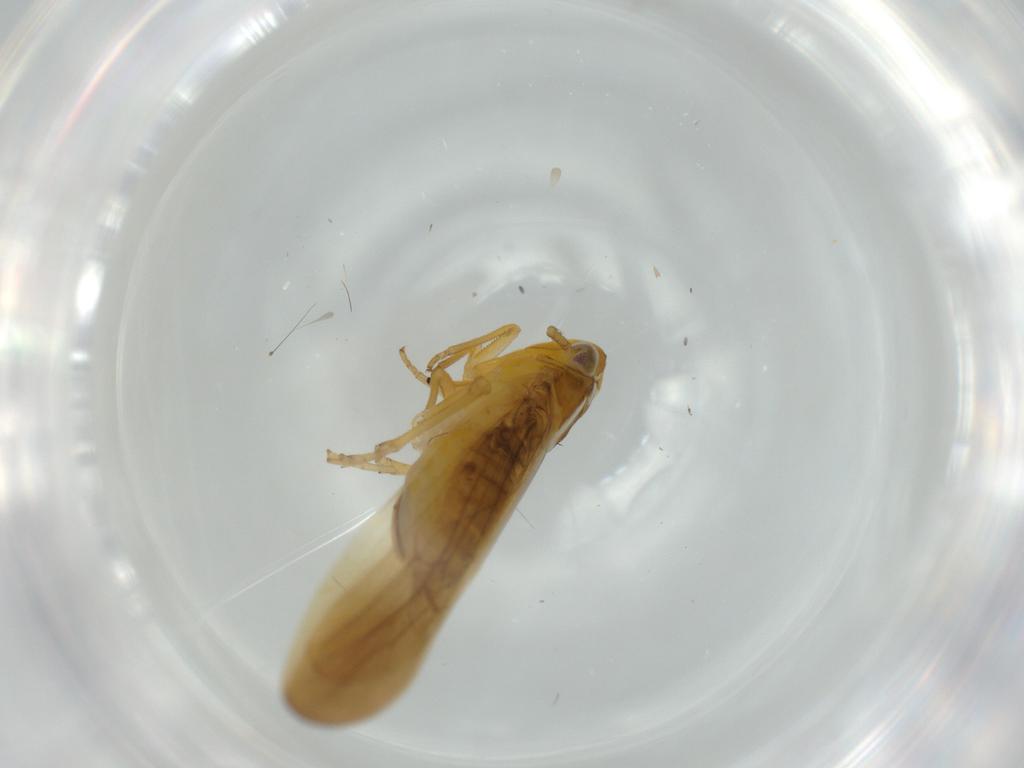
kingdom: Animalia
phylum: Arthropoda
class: Insecta
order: Hemiptera
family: Delphacidae
